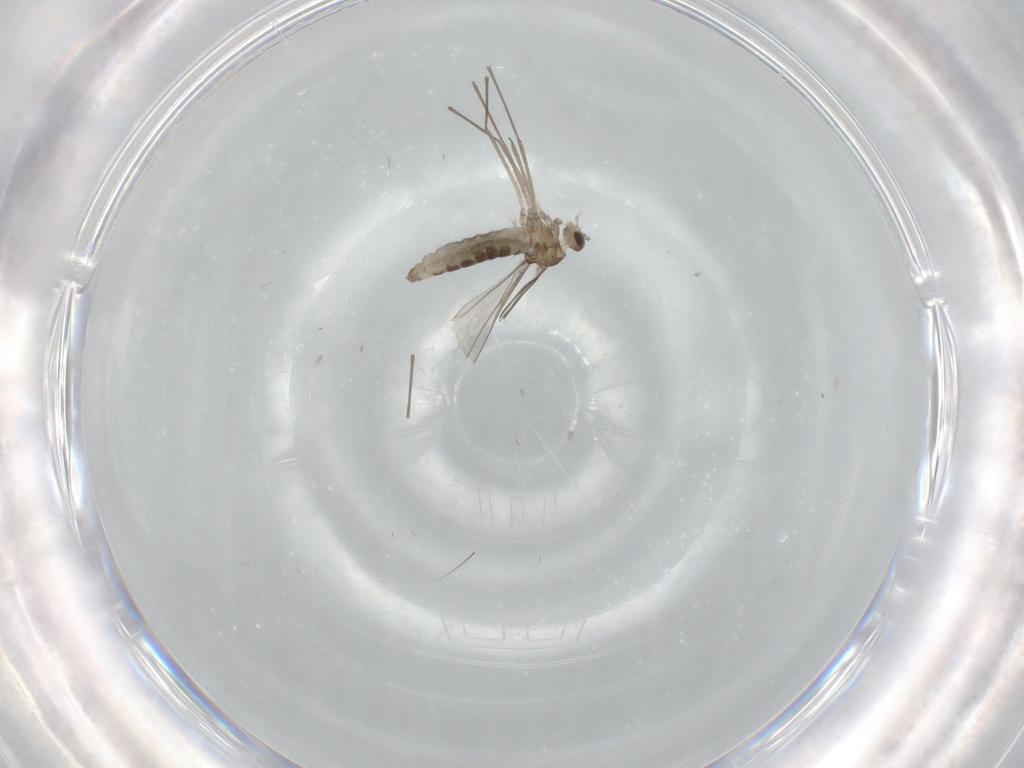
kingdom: Animalia
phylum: Arthropoda
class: Insecta
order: Diptera
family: Cecidomyiidae
